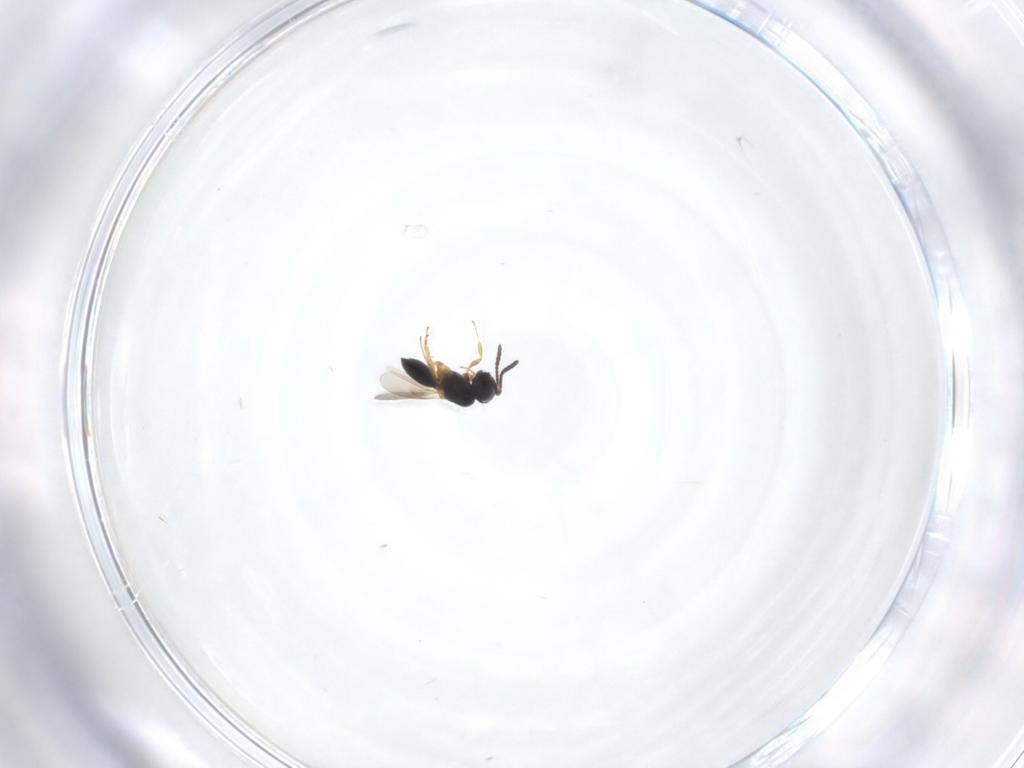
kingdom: Animalia
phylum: Arthropoda
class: Insecta
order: Hymenoptera
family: Scelionidae
